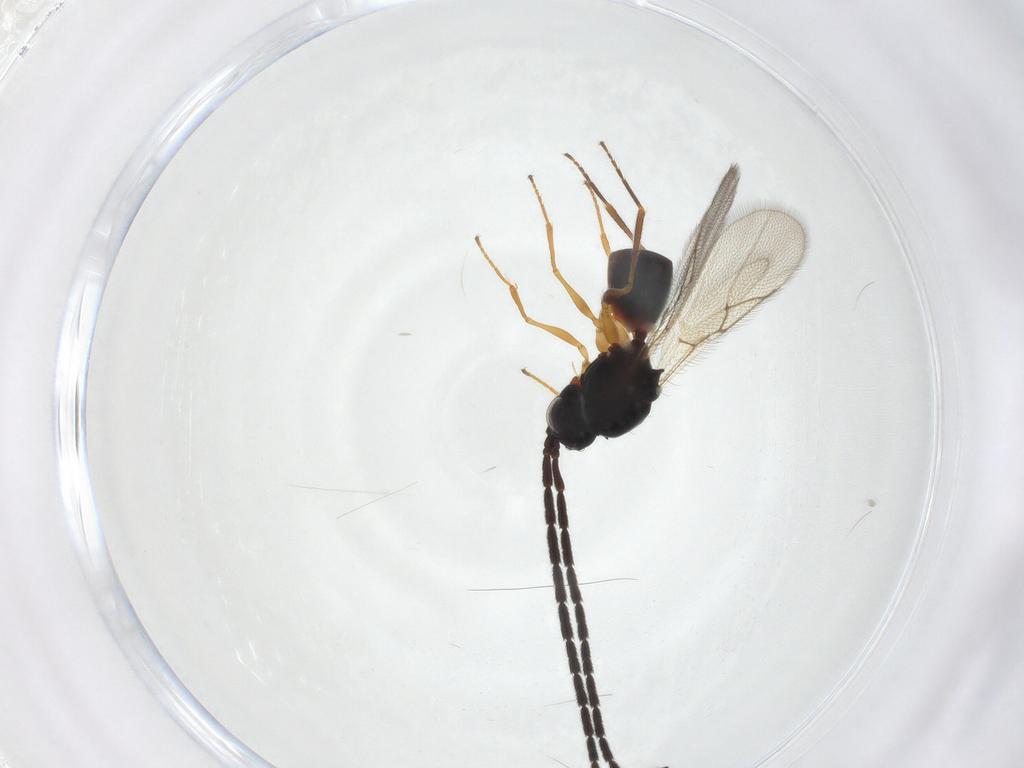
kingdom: Animalia
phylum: Arthropoda
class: Insecta
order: Hymenoptera
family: Figitidae
